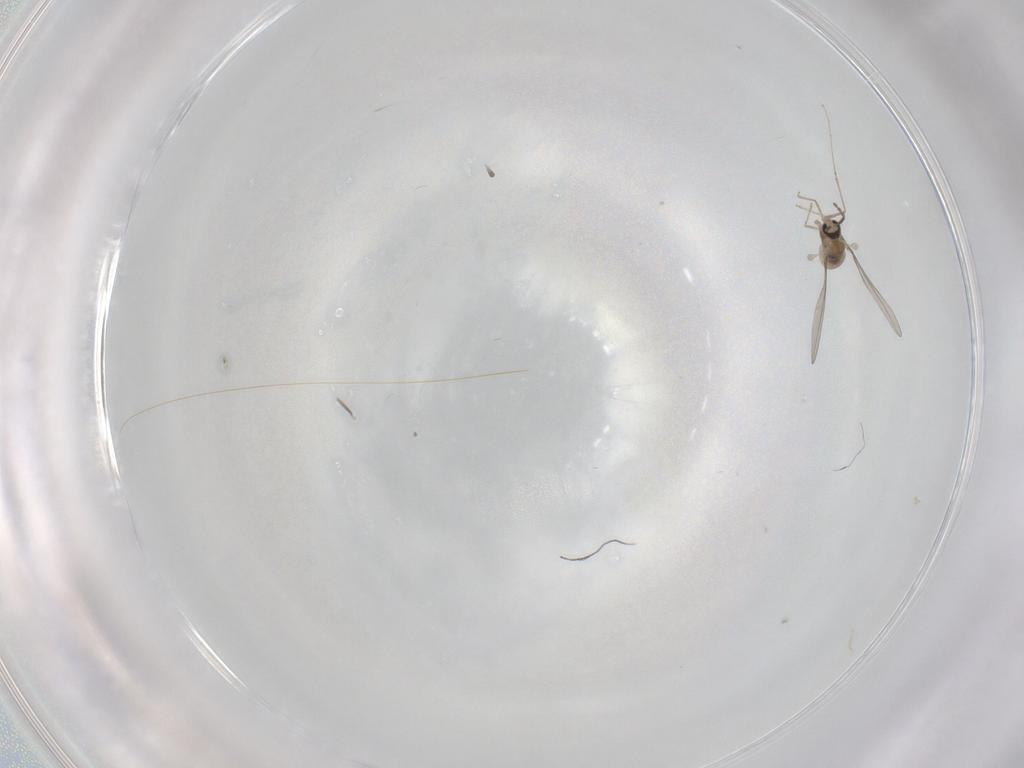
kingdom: Animalia
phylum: Arthropoda
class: Insecta
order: Diptera
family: Cecidomyiidae
